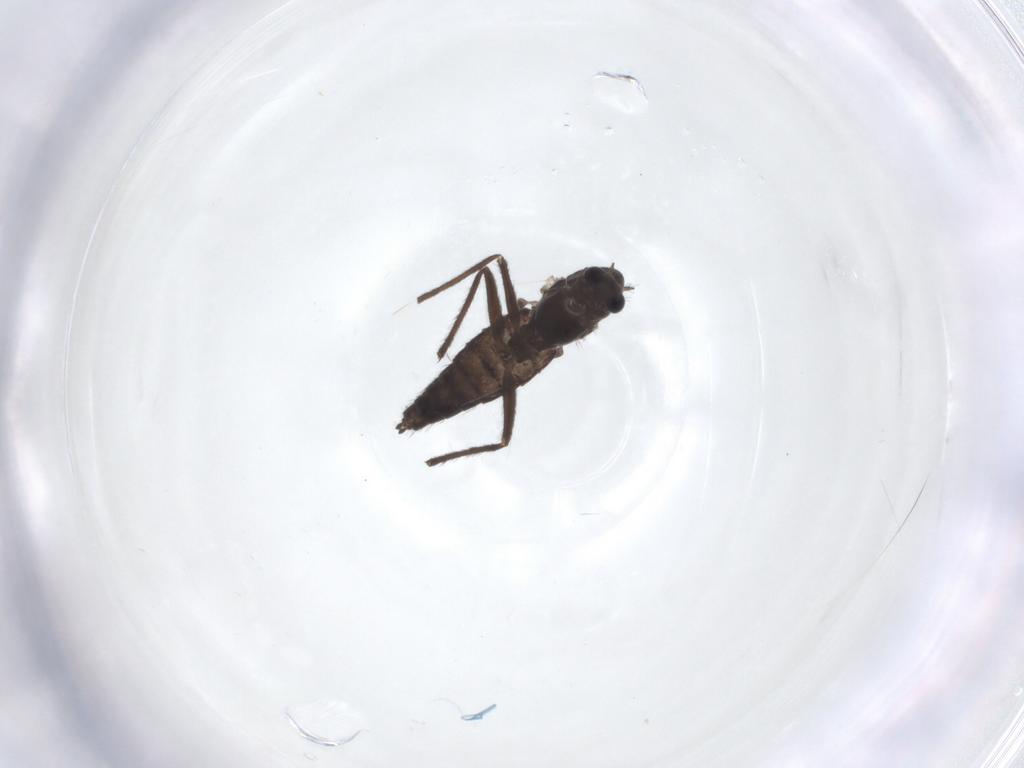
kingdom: Animalia
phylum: Arthropoda
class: Insecta
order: Diptera
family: Chironomidae
